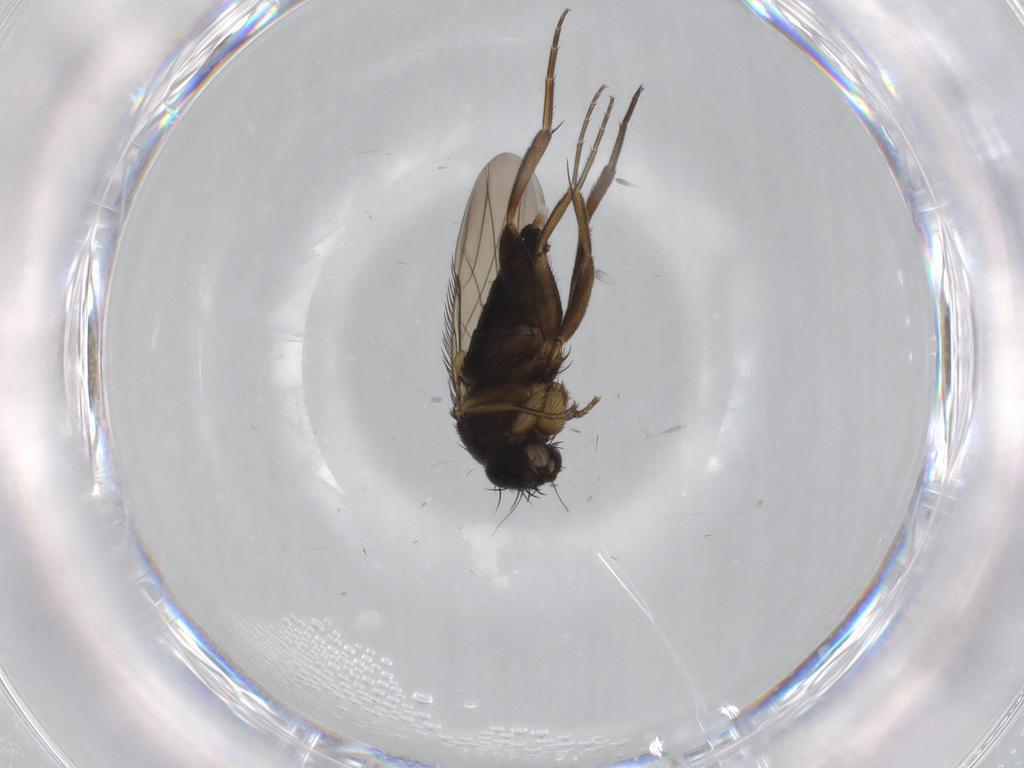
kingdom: Animalia
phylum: Arthropoda
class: Insecta
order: Diptera
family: Phoridae
